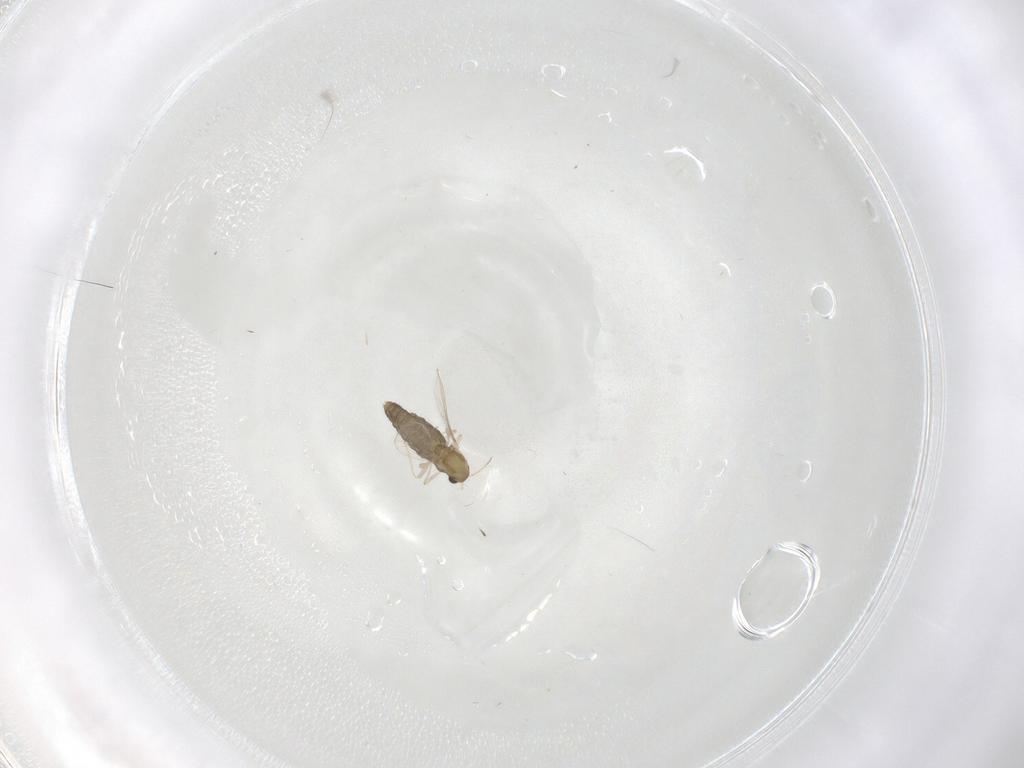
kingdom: Animalia
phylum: Arthropoda
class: Insecta
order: Diptera
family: Chironomidae
